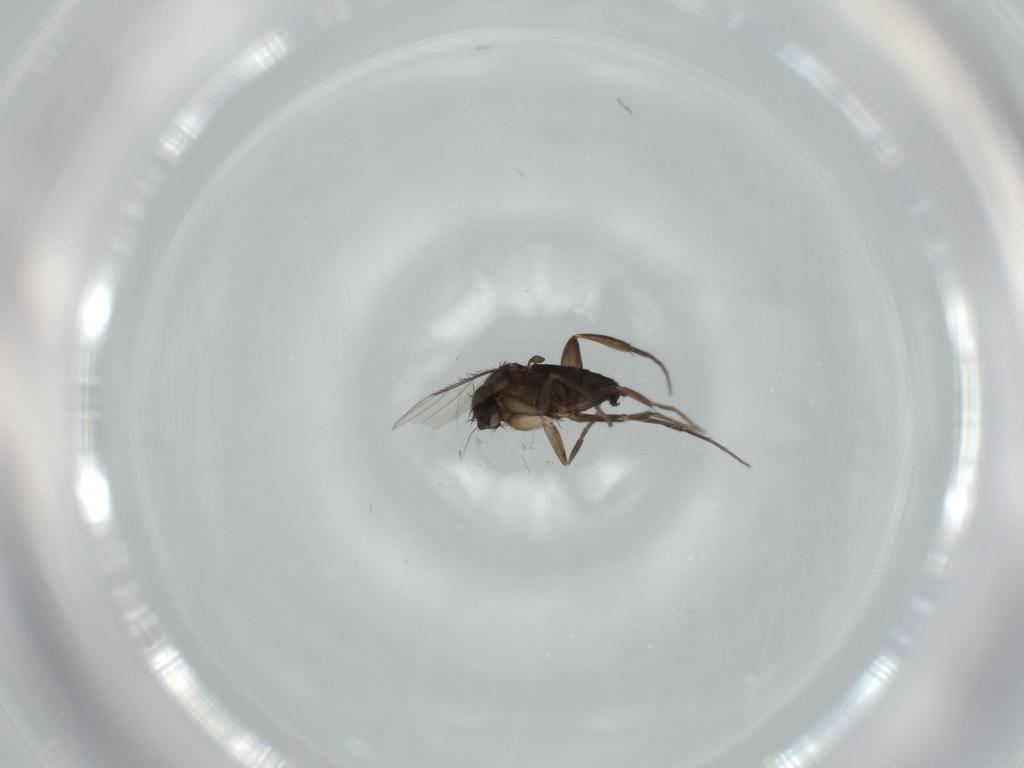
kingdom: Animalia
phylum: Arthropoda
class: Insecta
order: Diptera
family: Phoridae
